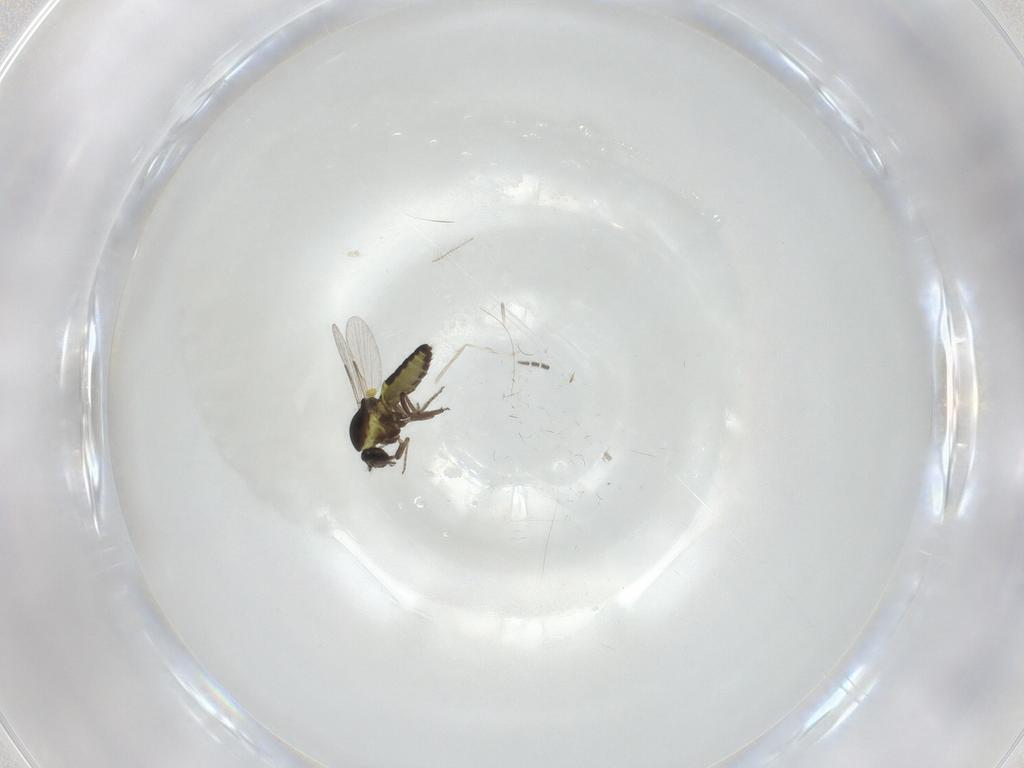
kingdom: Animalia
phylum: Arthropoda
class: Insecta
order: Diptera
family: Cecidomyiidae
